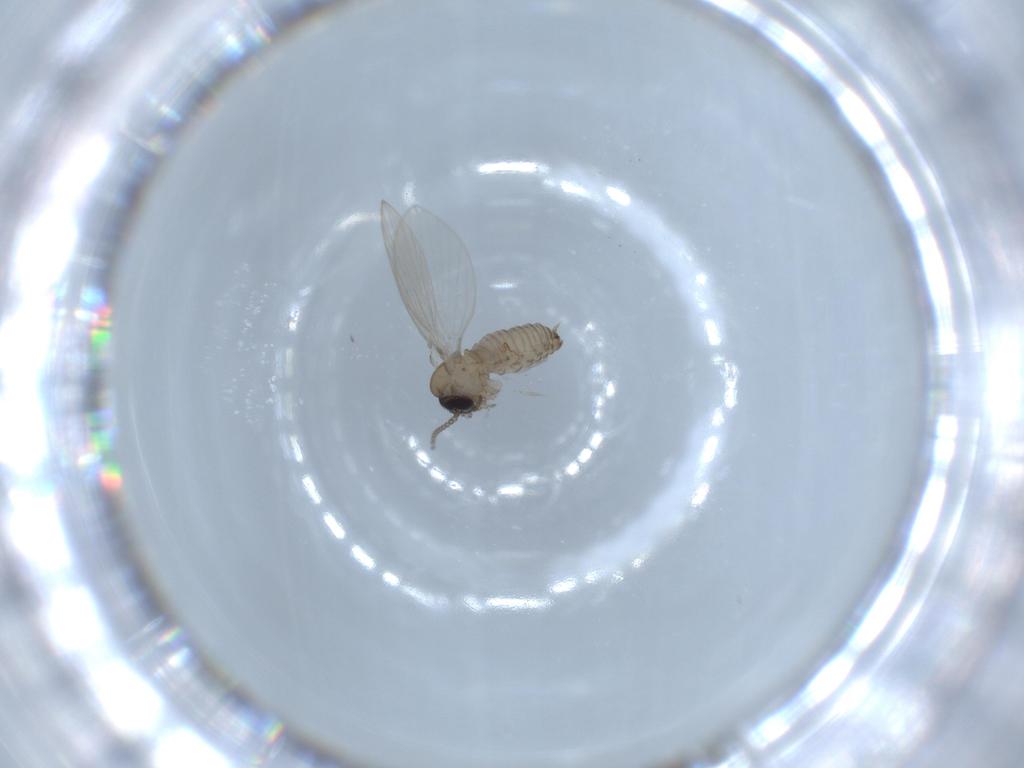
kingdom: Animalia
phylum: Arthropoda
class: Insecta
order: Diptera
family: Psychodidae
